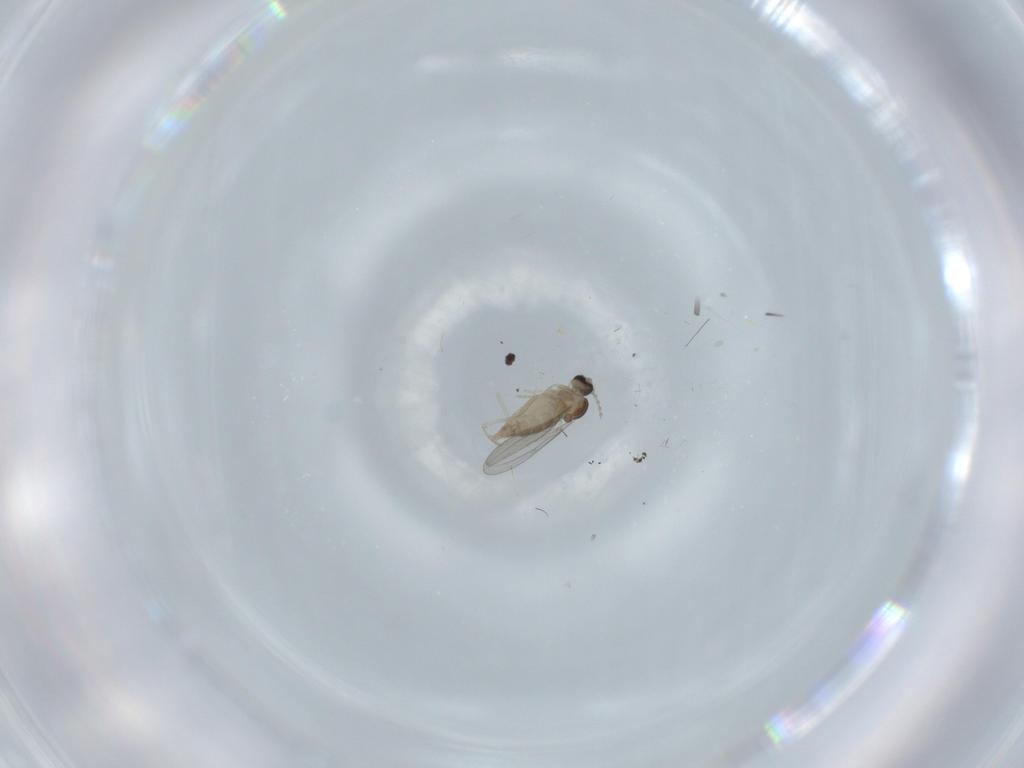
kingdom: Animalia
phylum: Arthropoda
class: Insecta
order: Diptera
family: Cecidomyiidae
